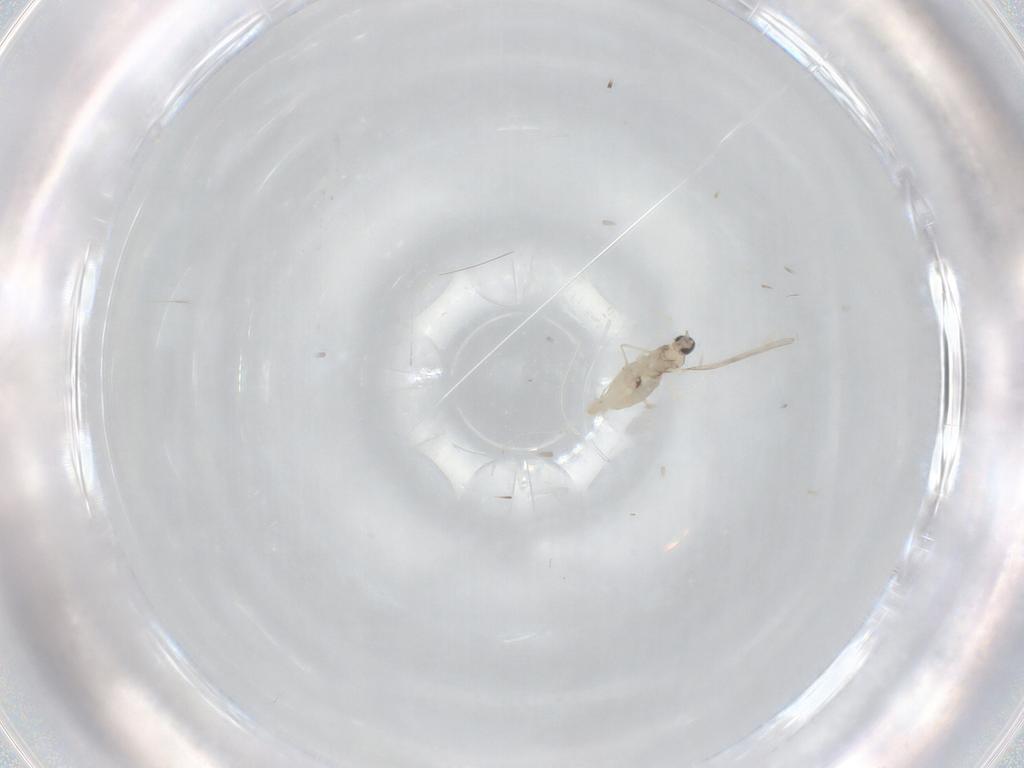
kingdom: Animalia
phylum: Arthropoda
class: Insecta
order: Diptera
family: Cecidomyiidae
